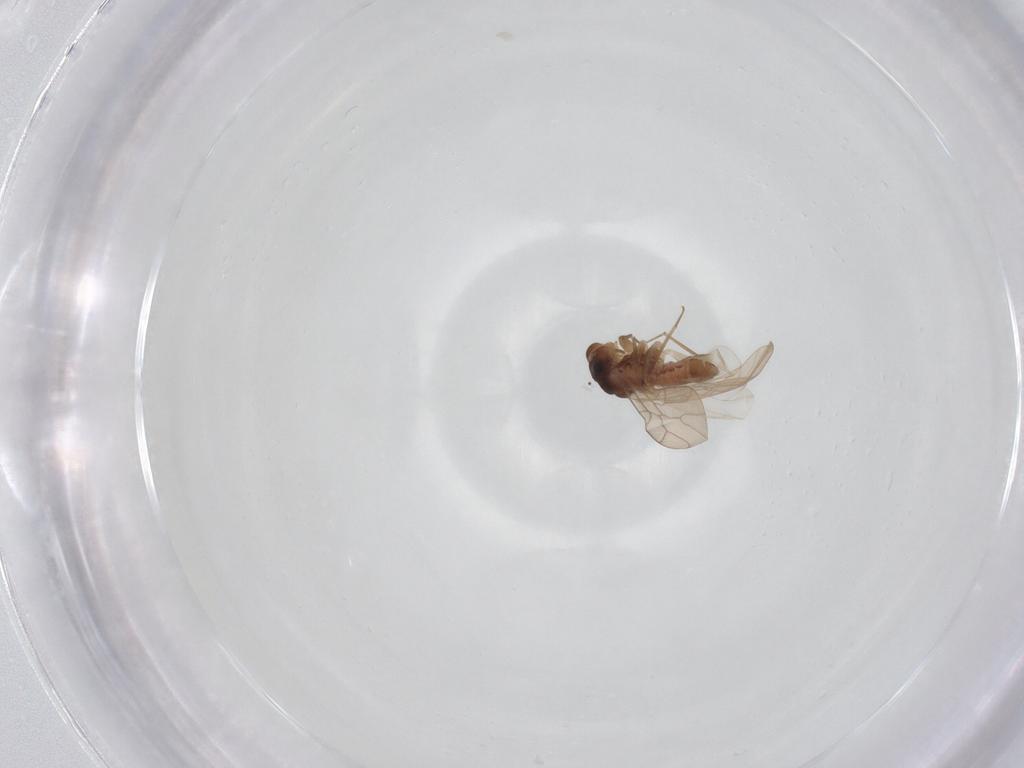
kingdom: Animalia
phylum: Arthropoda
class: Insecta
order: Psocodea
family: Lepidopsocidae
